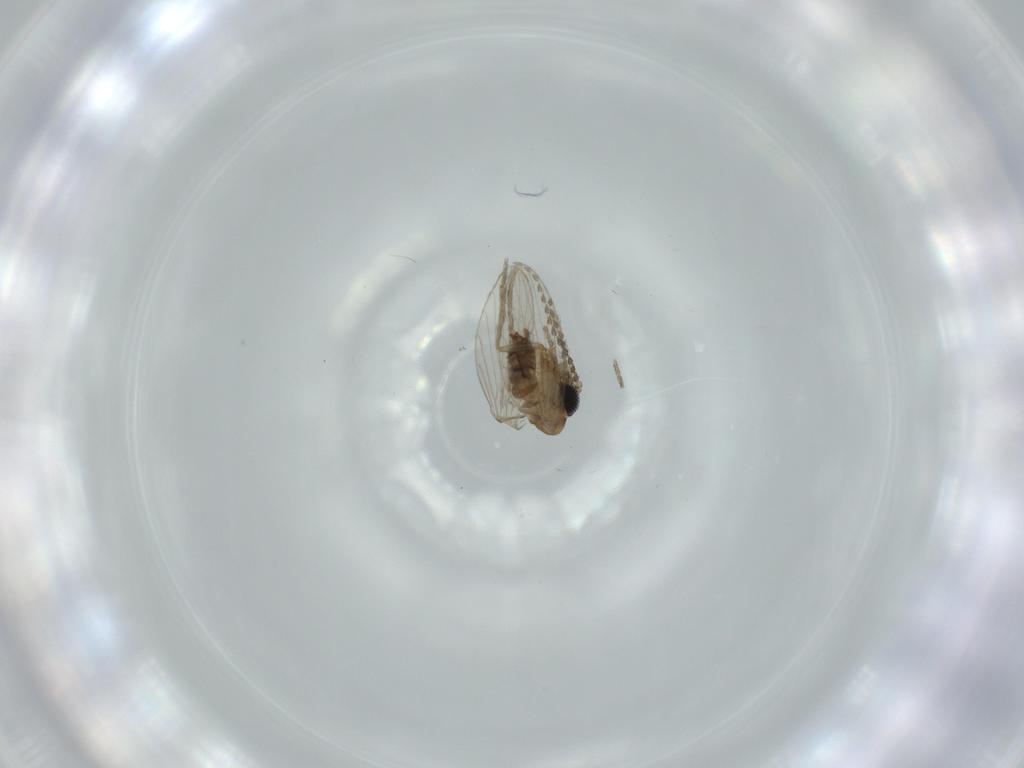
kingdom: Animalia
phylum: Arthropoda
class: Insecta
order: Diptera
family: Psychodidae
